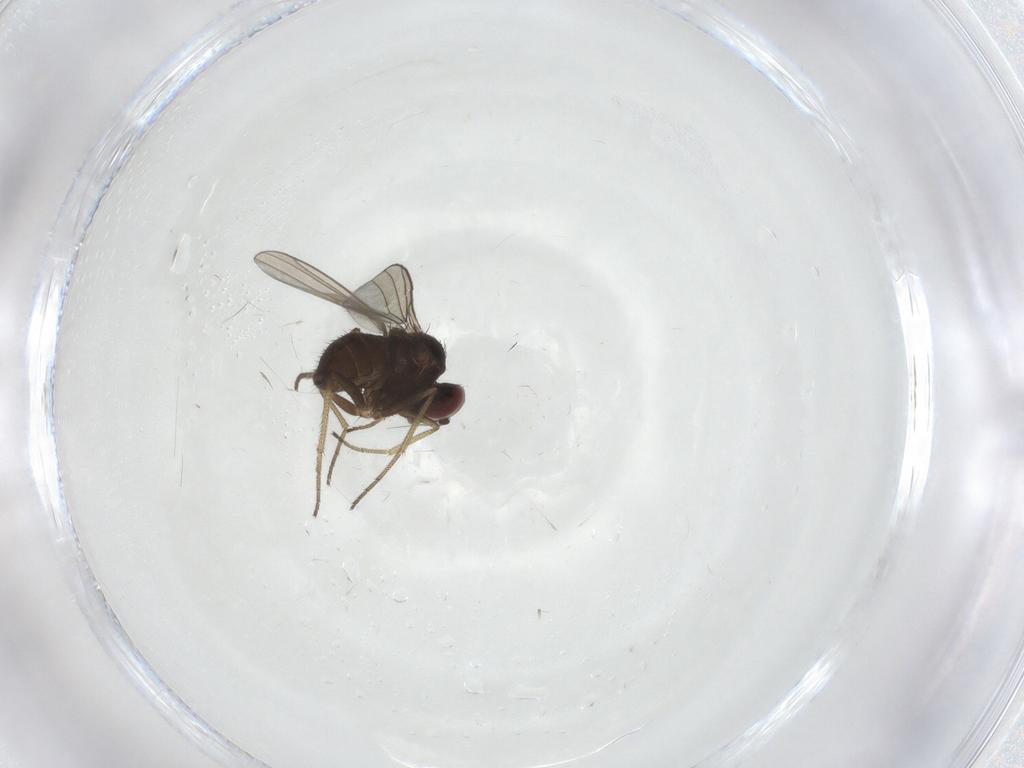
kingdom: Animalia
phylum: Arthropoda
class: Insecta
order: Diptera
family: Dolichopodidae
